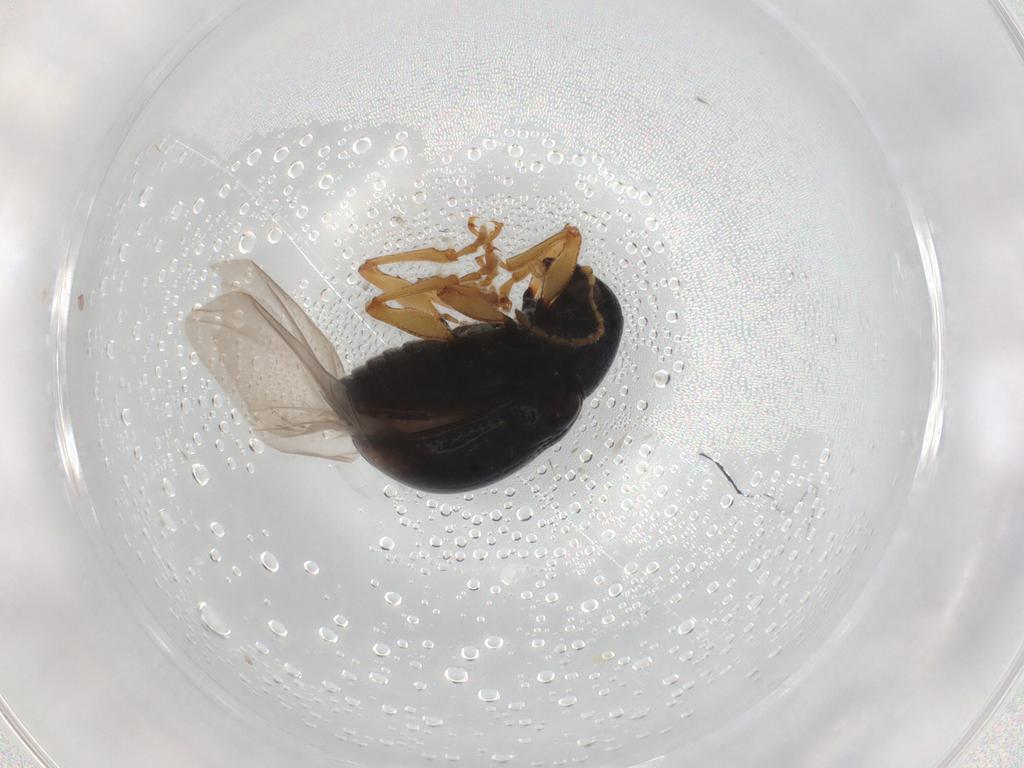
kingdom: Animalia
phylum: Arthropoda
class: Insecta
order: Coleoptera
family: Chrysomelidae
